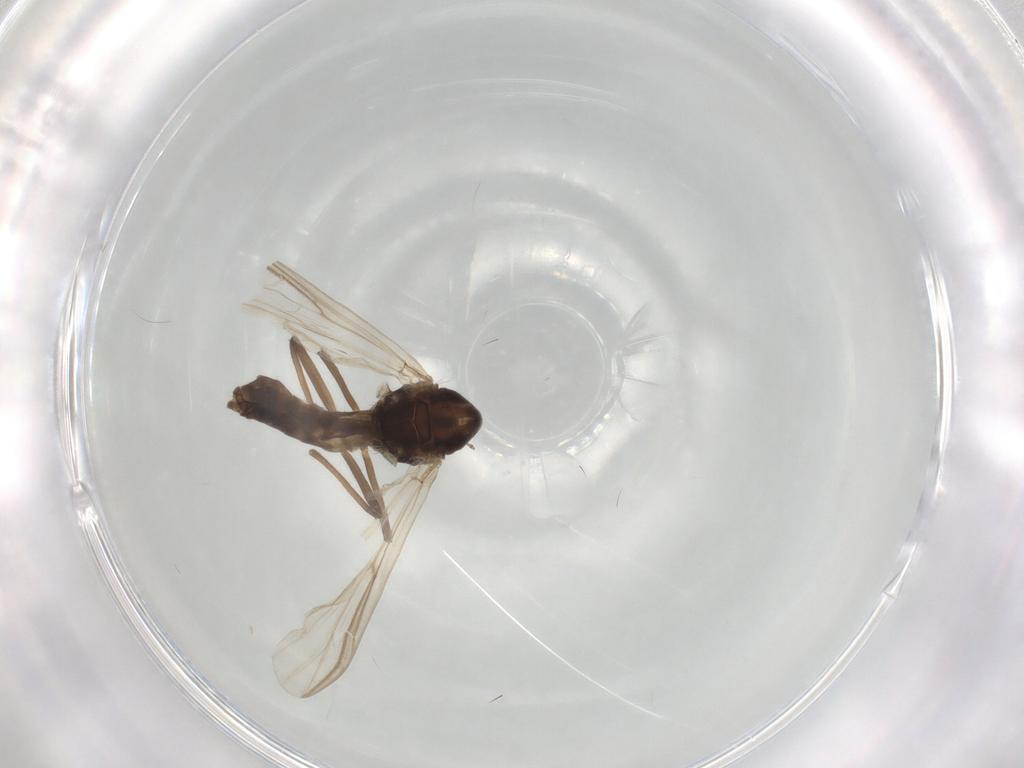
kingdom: Animalia
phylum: Arthropoda
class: Insecta
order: Diptera
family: Chironomidae
